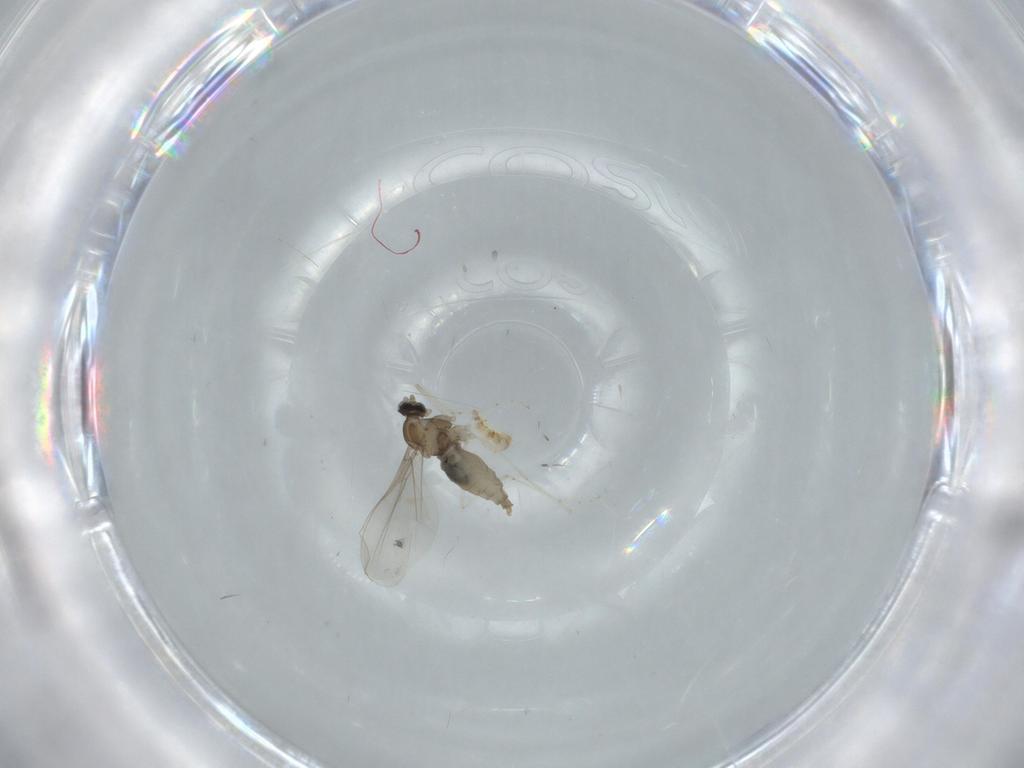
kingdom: Animalia
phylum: Arthropoda
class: Insecta
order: Diptera
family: Cecidomyiidae
